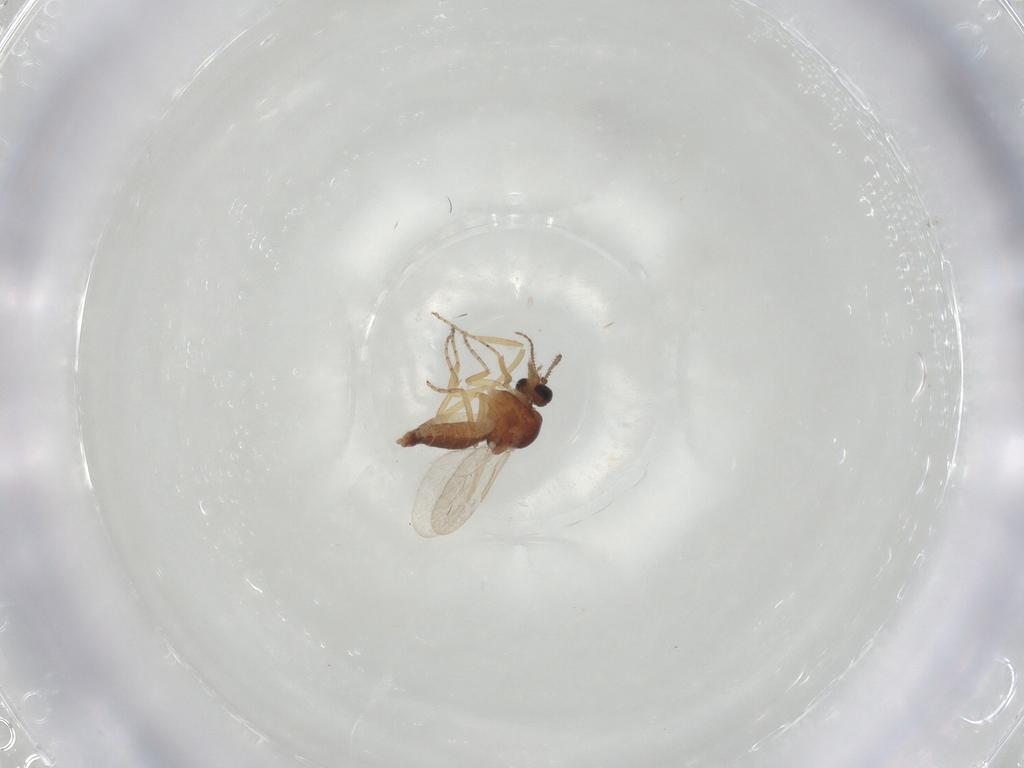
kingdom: Animalia
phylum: Arthropoda
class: Insecta
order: Diptera
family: Ceratopogonidae
